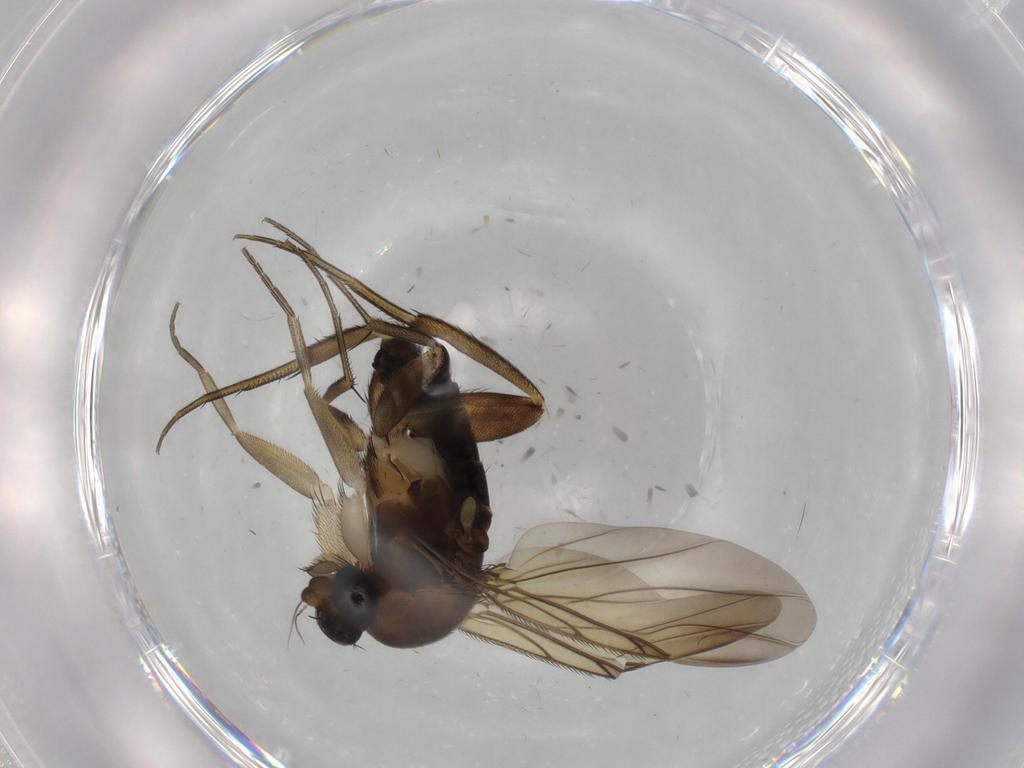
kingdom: Animalia
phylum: Arthropoda
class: Insecta
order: Diptera
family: Phoridae
